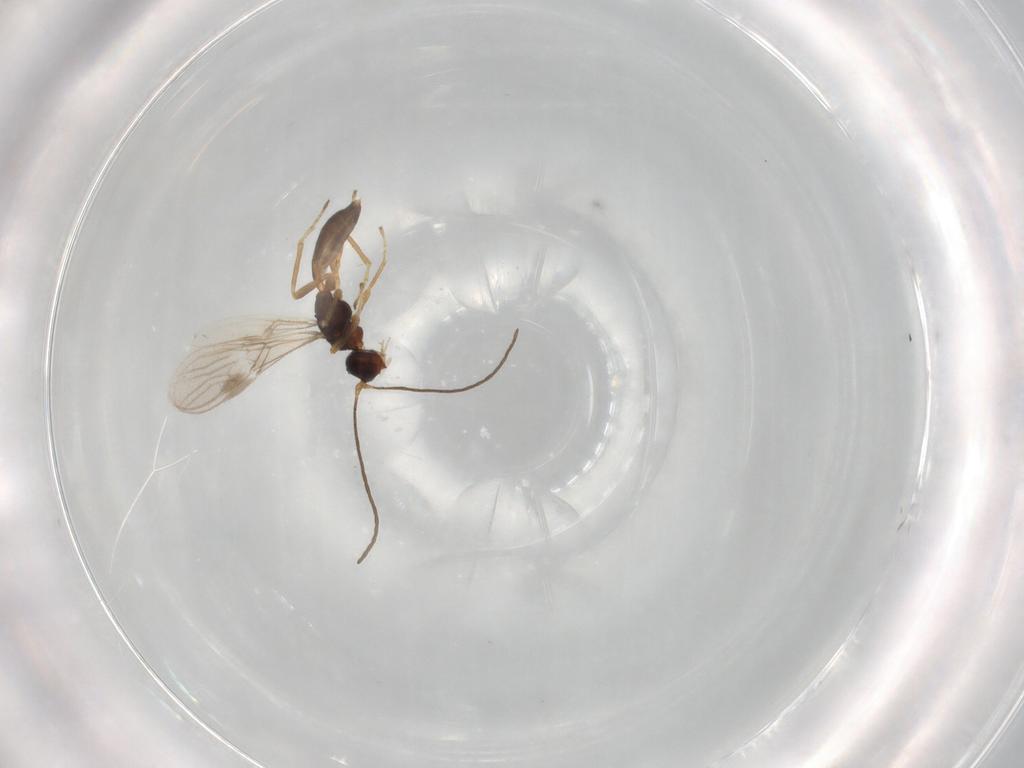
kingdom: Animalia
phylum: Arthropoda
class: Insecta
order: Hymenoptera
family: Braconidae
